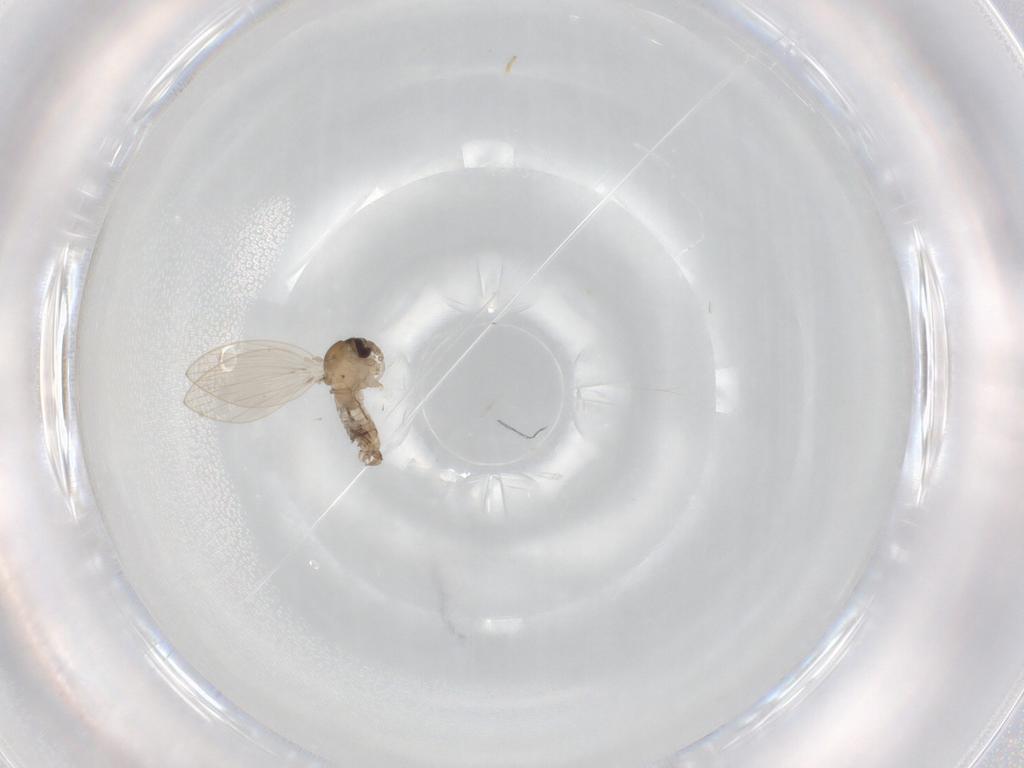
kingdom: Animalia
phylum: Arthropoda
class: Insecta
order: Diptera
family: Psychodidae
